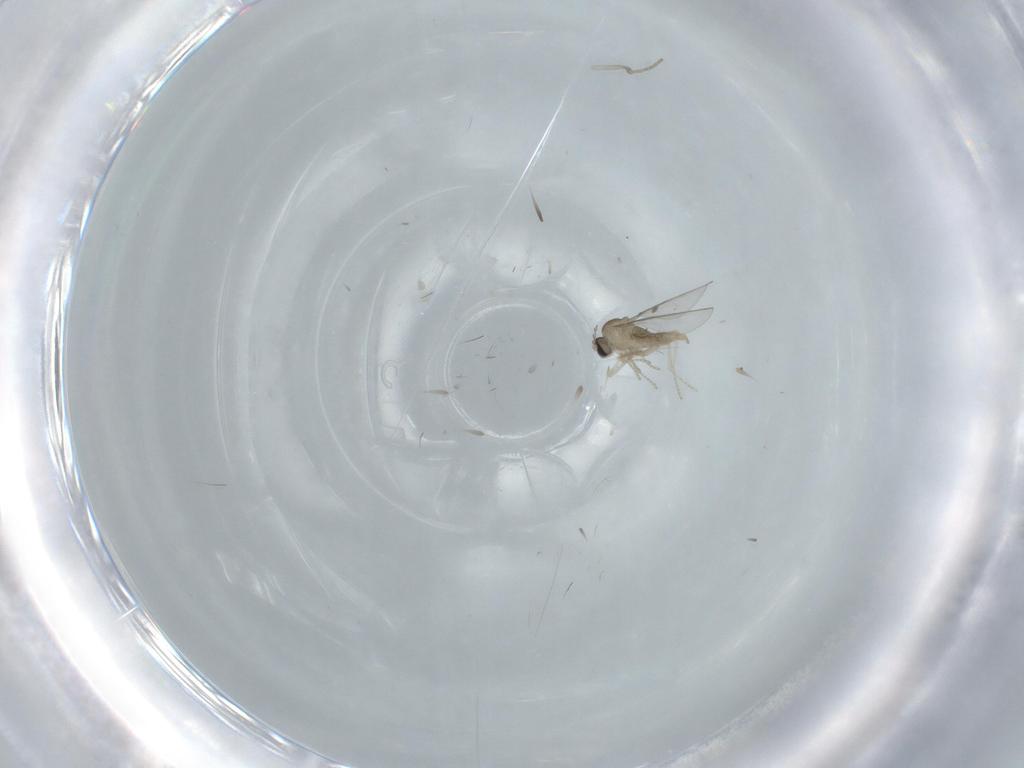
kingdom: Animalia
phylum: Arthropoda
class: Insecta
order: Diptera
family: Cecidomyiidae
